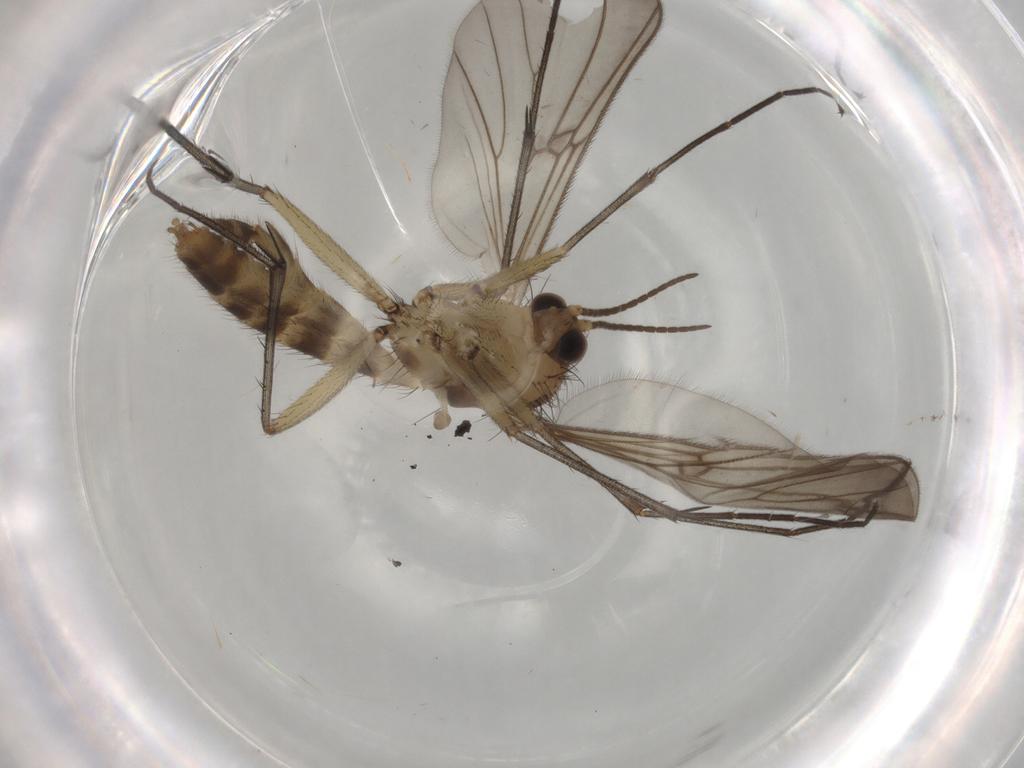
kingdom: Animalia
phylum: Arthropoda
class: Insecta
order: Diptera
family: Mycetophilidae
